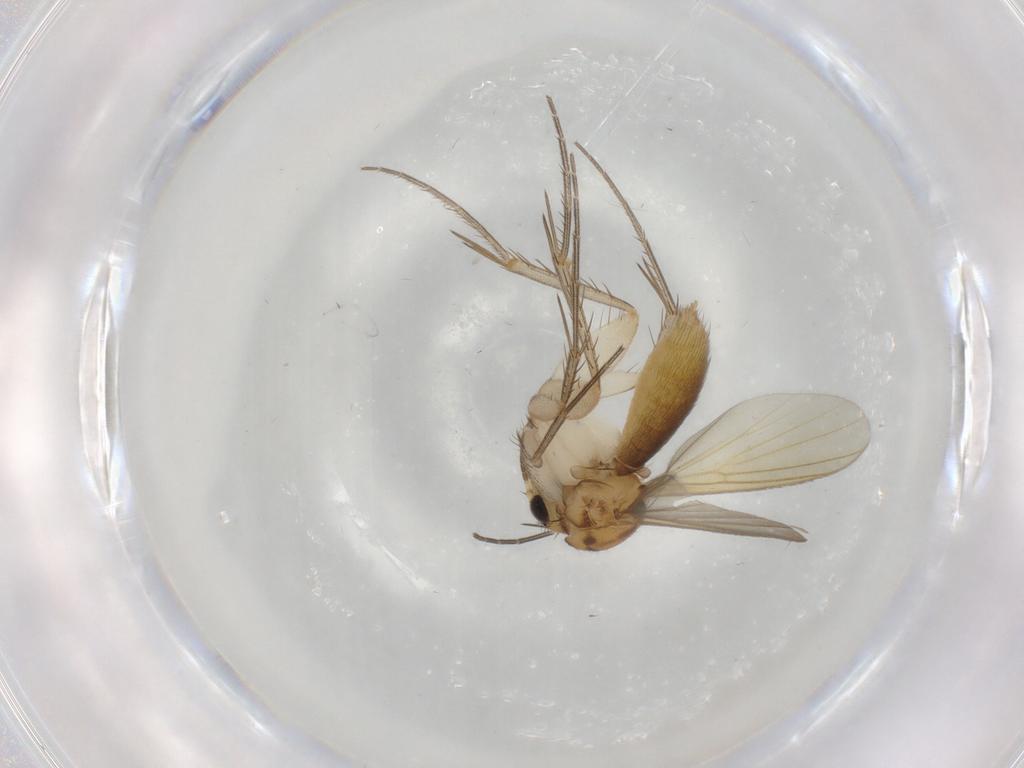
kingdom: Animalia
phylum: Arthropoda
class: Insecta
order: Diptera
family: Mycetophilidae
